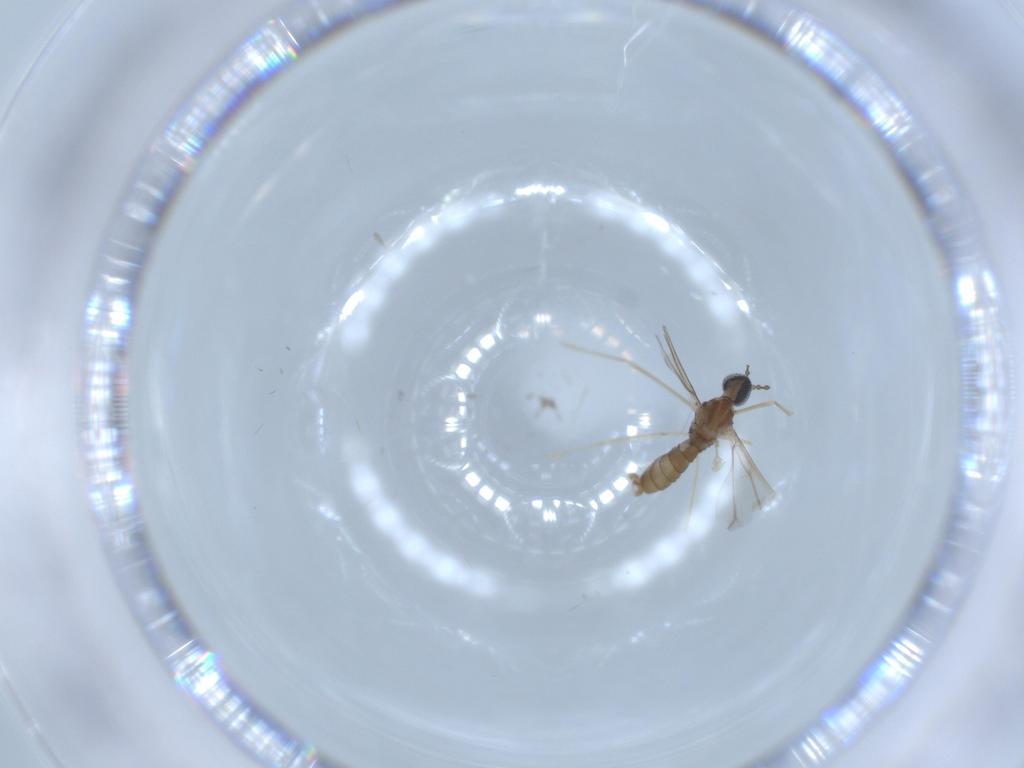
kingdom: Animalia
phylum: Arthropoda
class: Insecta
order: Diptera
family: Cecidomyiidae
